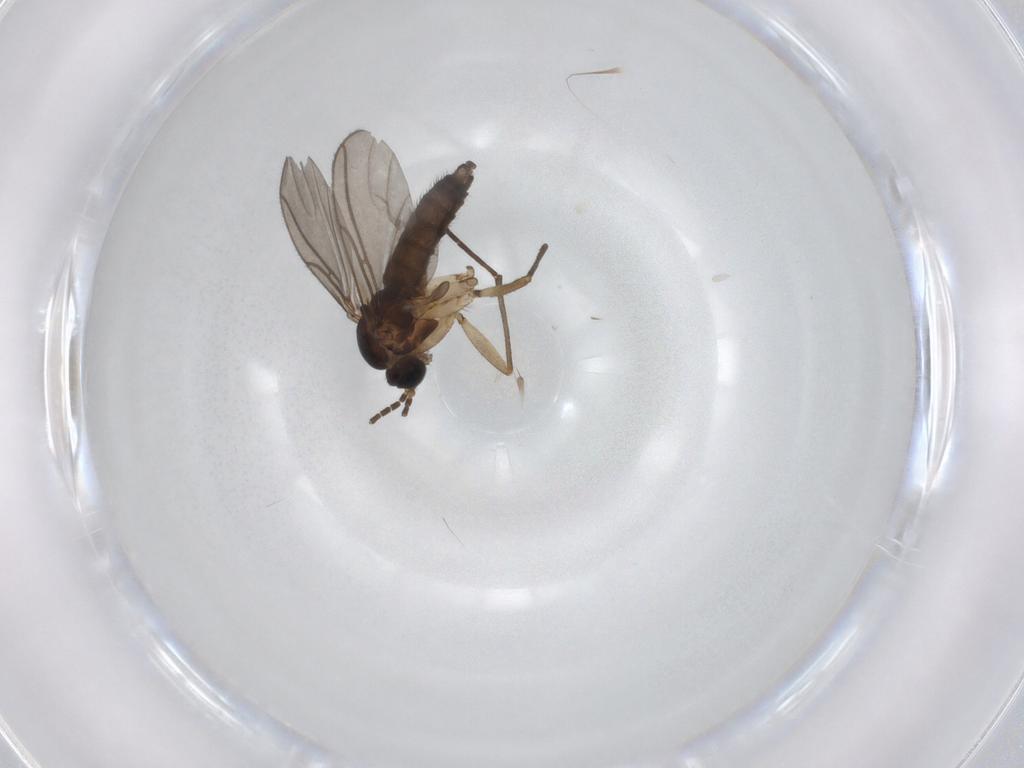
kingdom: Animalia
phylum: Arthropoda
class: Insecta
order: Diptera
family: Sciaridae
